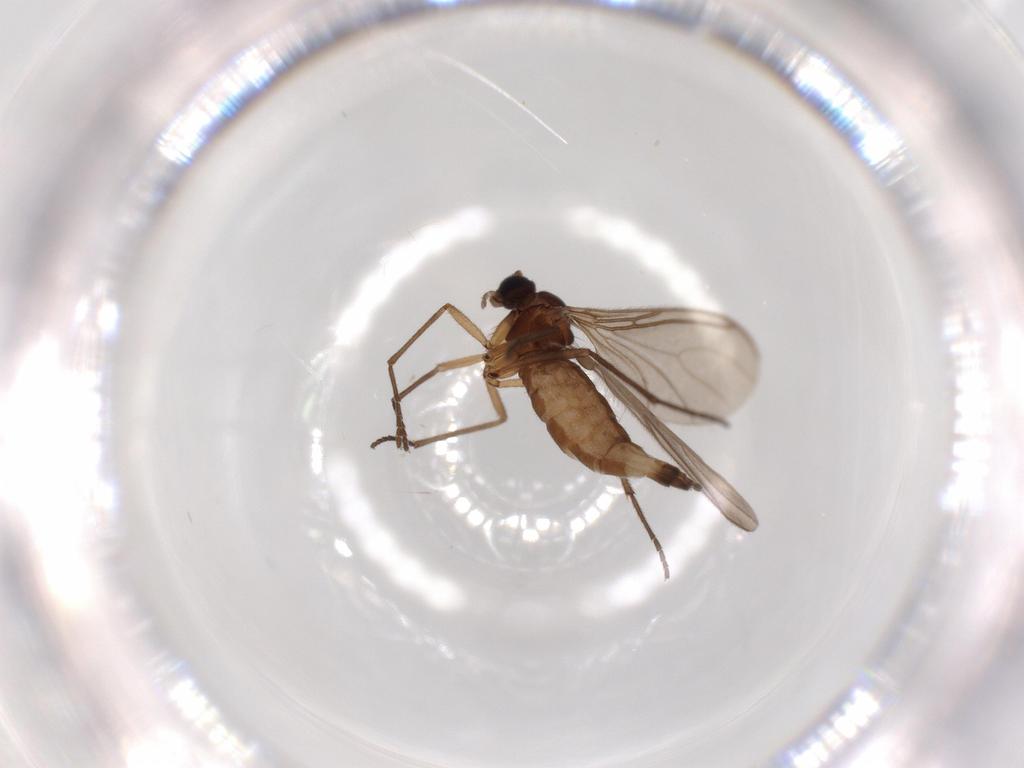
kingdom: Animalia
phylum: Arthropoda
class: Insecta
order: Diptera
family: Sciaridae
